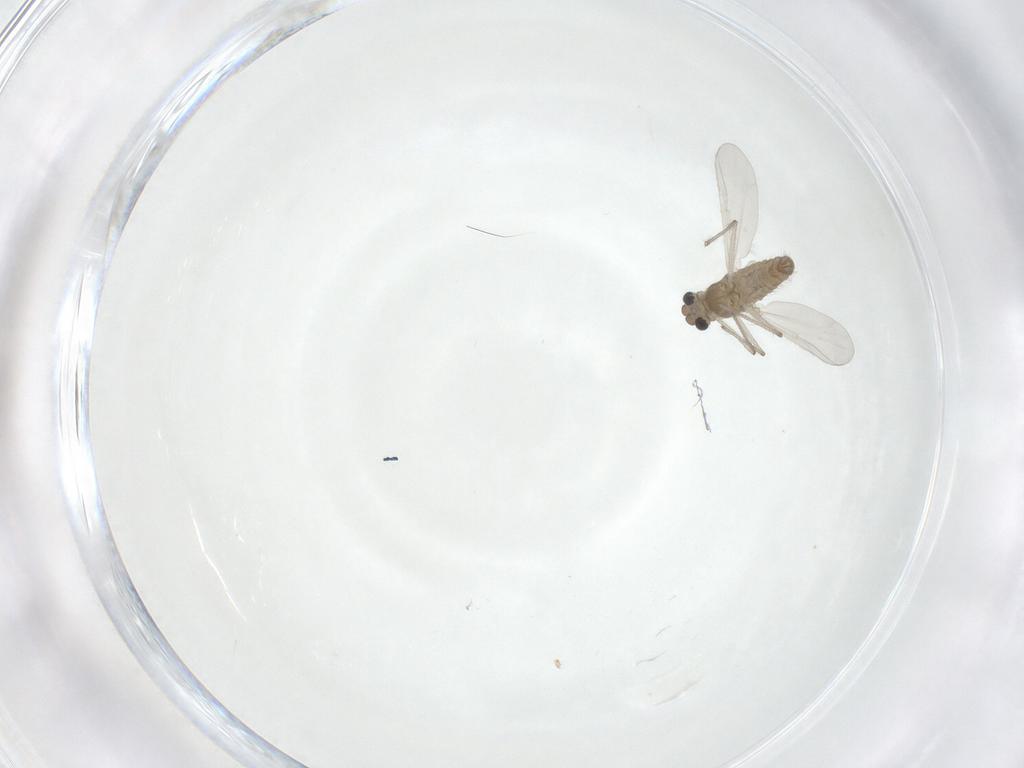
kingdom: Animalia
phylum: Arthropoda
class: Insecta
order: Diptera
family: Chironomidae
